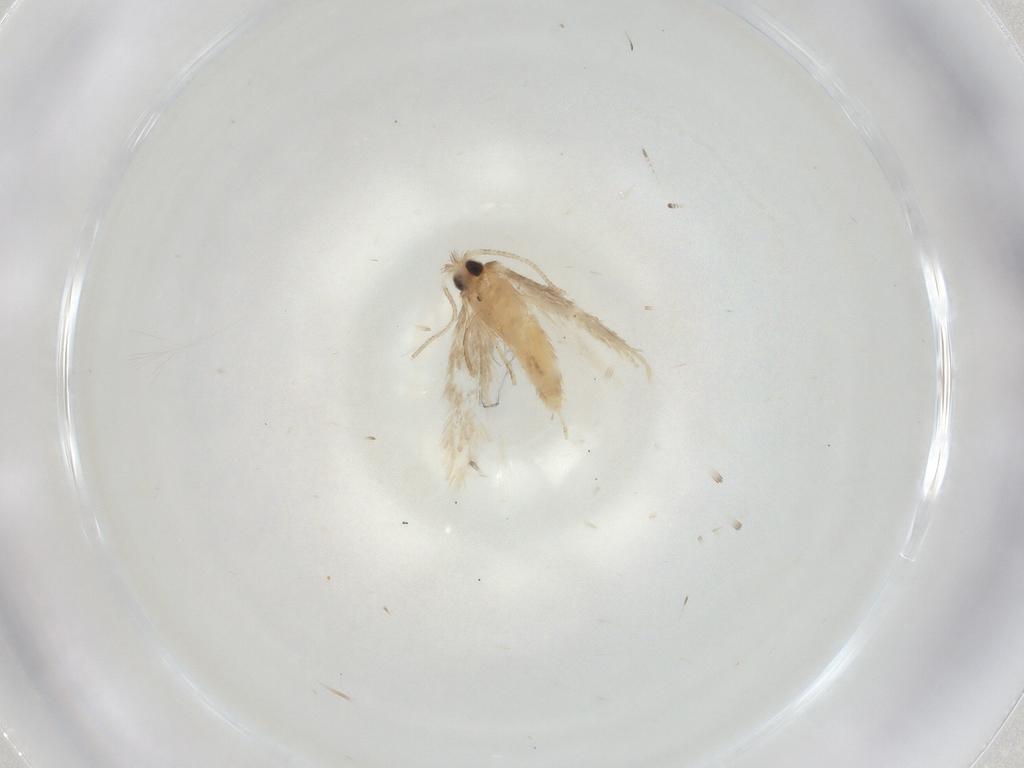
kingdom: Animalia
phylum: Arthropoda
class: Insecta
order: Lepidoptera
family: Nepticulidae
